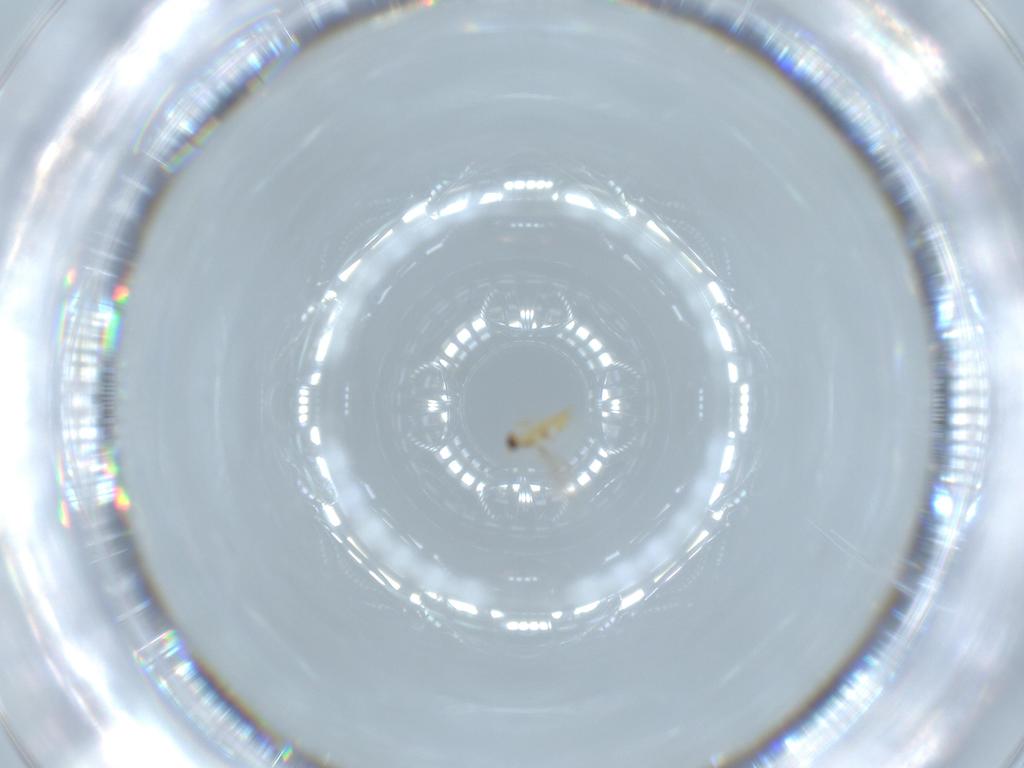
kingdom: Animalia
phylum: Arthropoda
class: Insecta
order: Hymenoptera
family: Mymaridae
